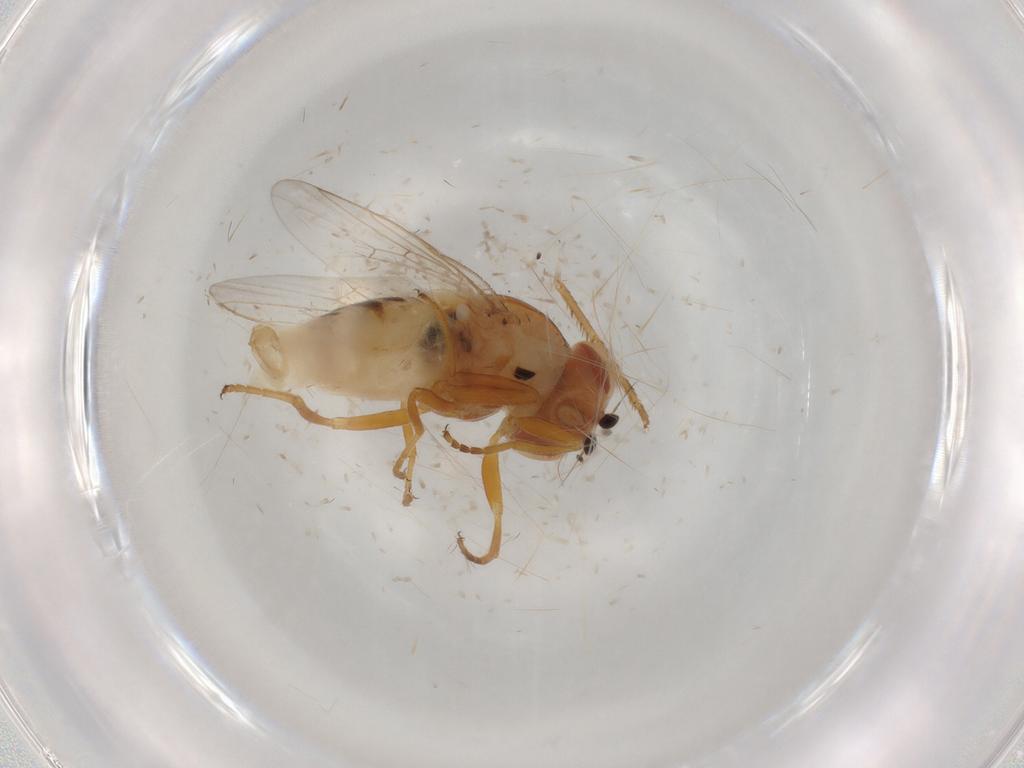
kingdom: Animalia
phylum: Arthropoda
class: Insecta
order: Diptera
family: Chloropidae
